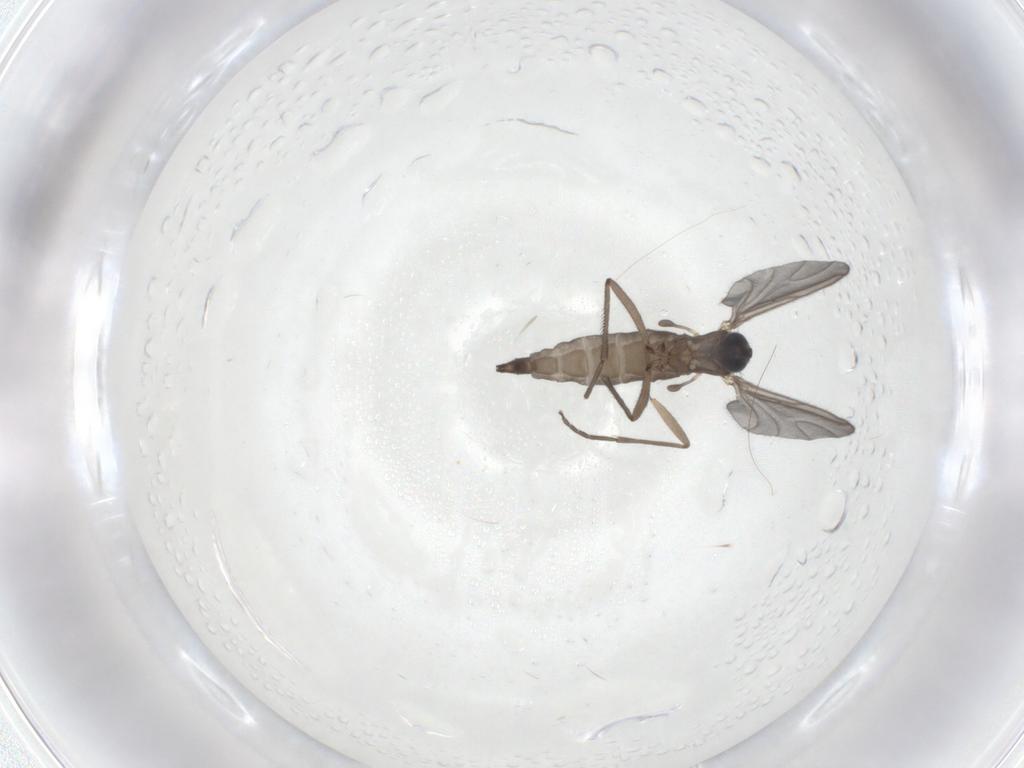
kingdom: Animalia
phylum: Arthropoda
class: Insecta
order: Diptera
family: Sciaridae
